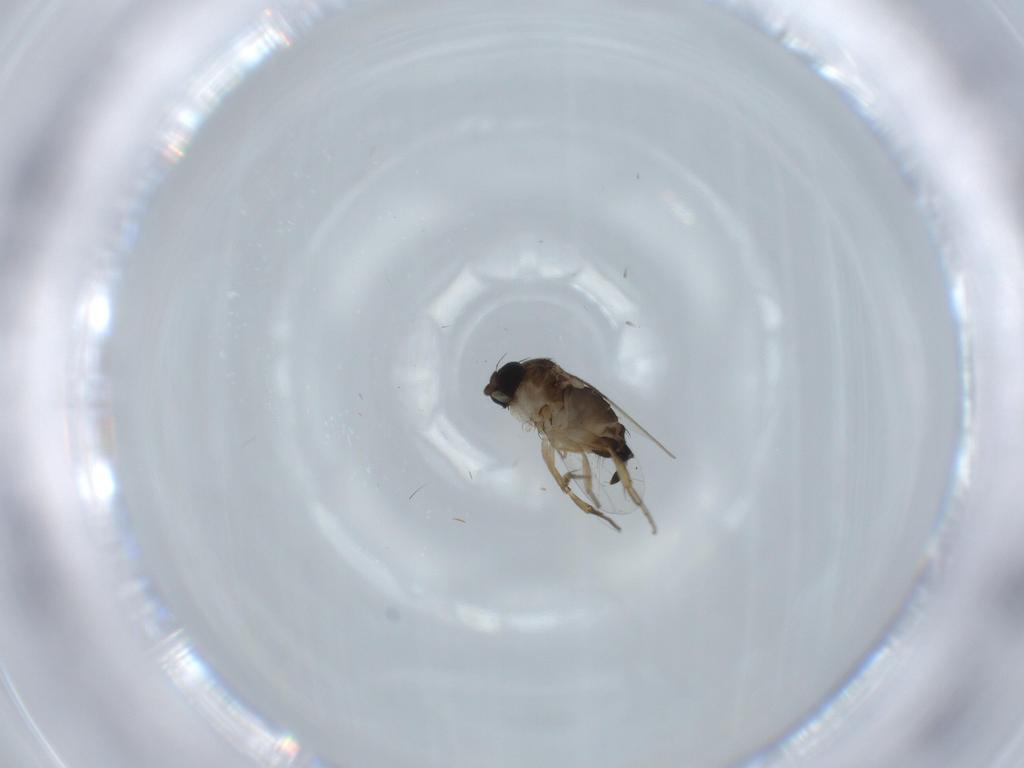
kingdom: Animalia
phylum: Arthropoda
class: Insecta
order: Diptera
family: Phoridae
